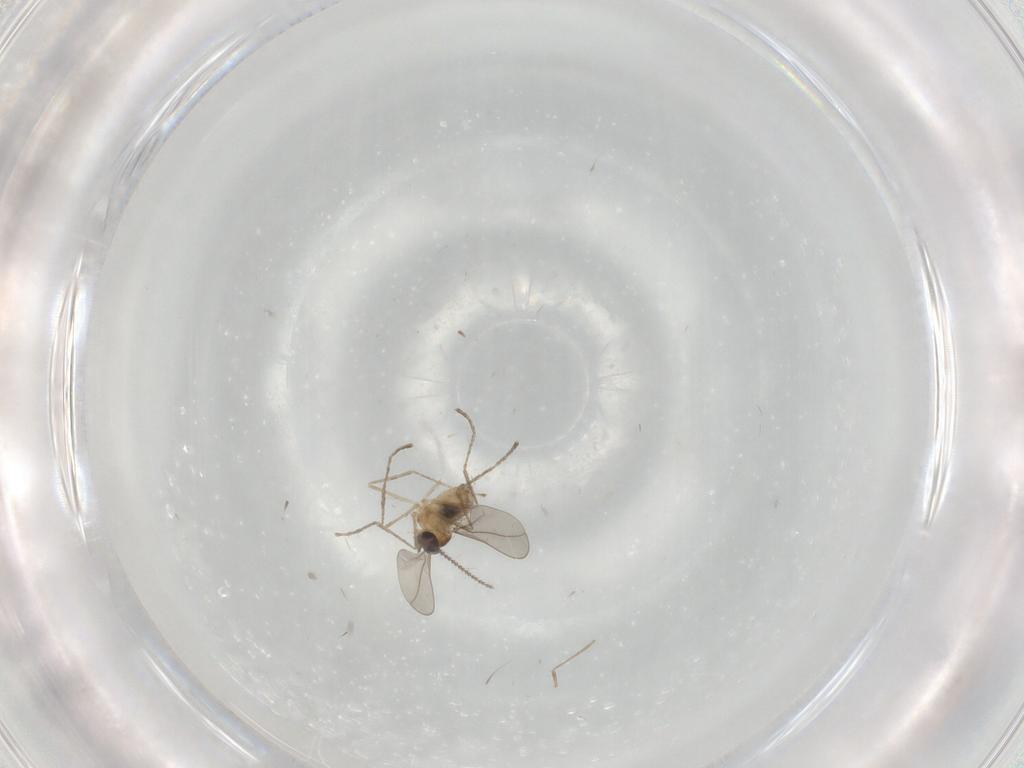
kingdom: Animalia
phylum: Arthropoda
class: Insecta
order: Diptera
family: Cecidomyiidae
